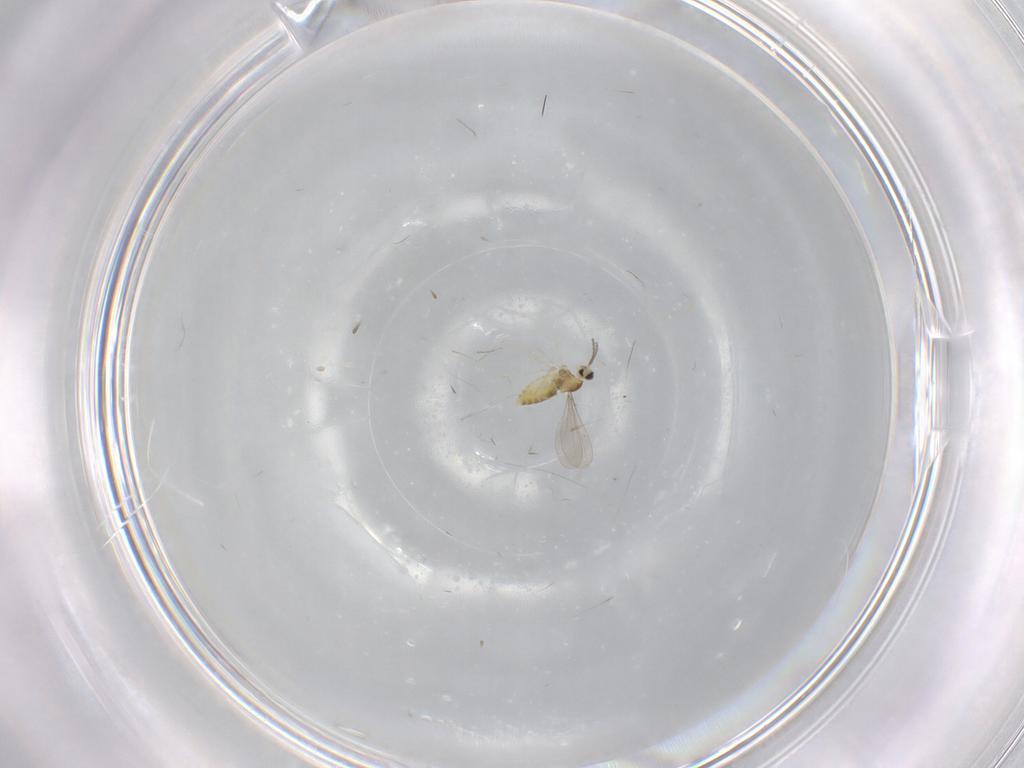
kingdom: Animalia
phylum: Arthropoda
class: Insecta
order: Diptera
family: Cecidomyiidae
